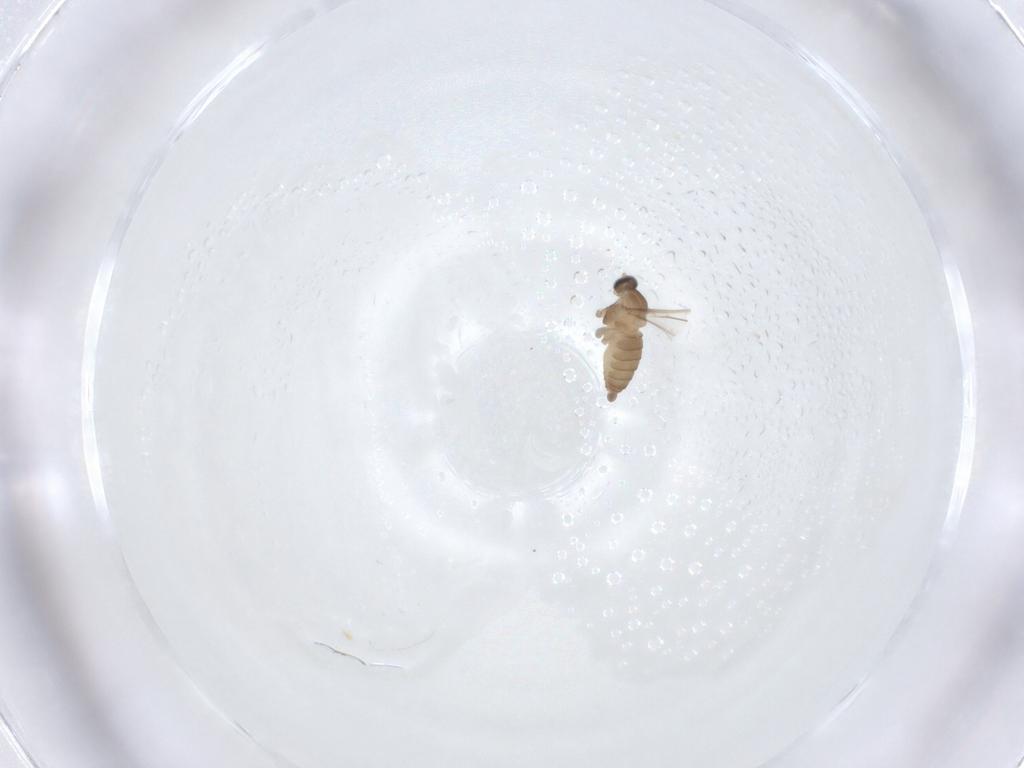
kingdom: Animalia
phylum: Arthropoda
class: Insecta
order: Diptera
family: Cecidomyiidae
